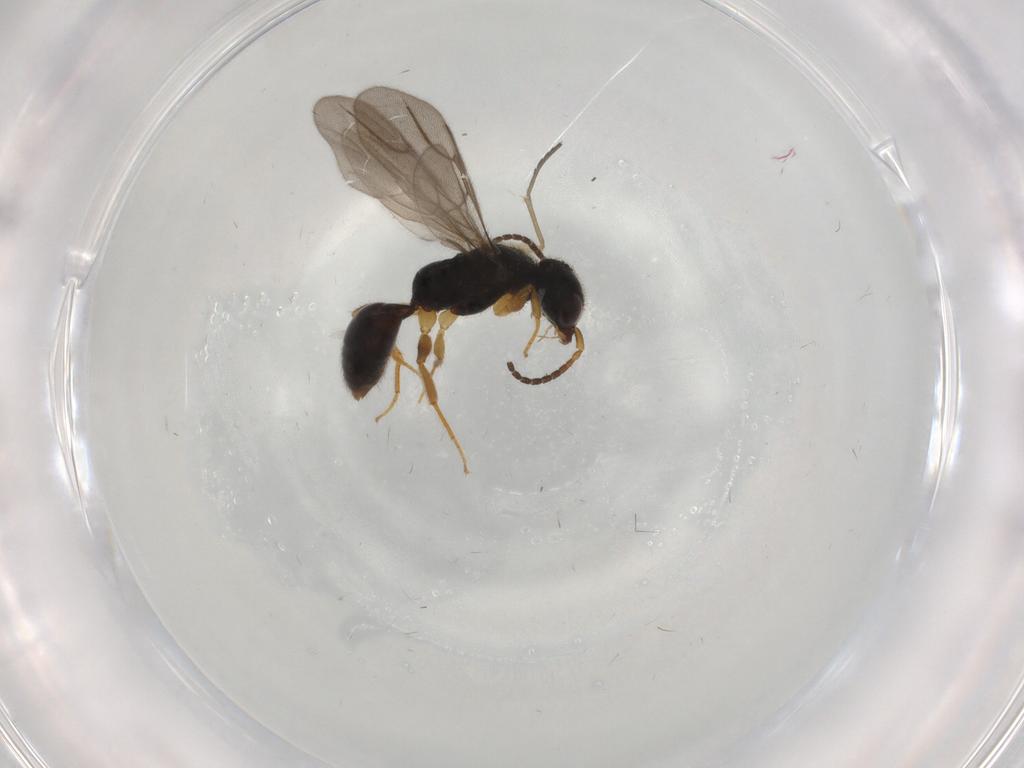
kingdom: Animalia
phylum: Arthropoda
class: Insecta
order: Hymenoptera
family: Bethylidae
